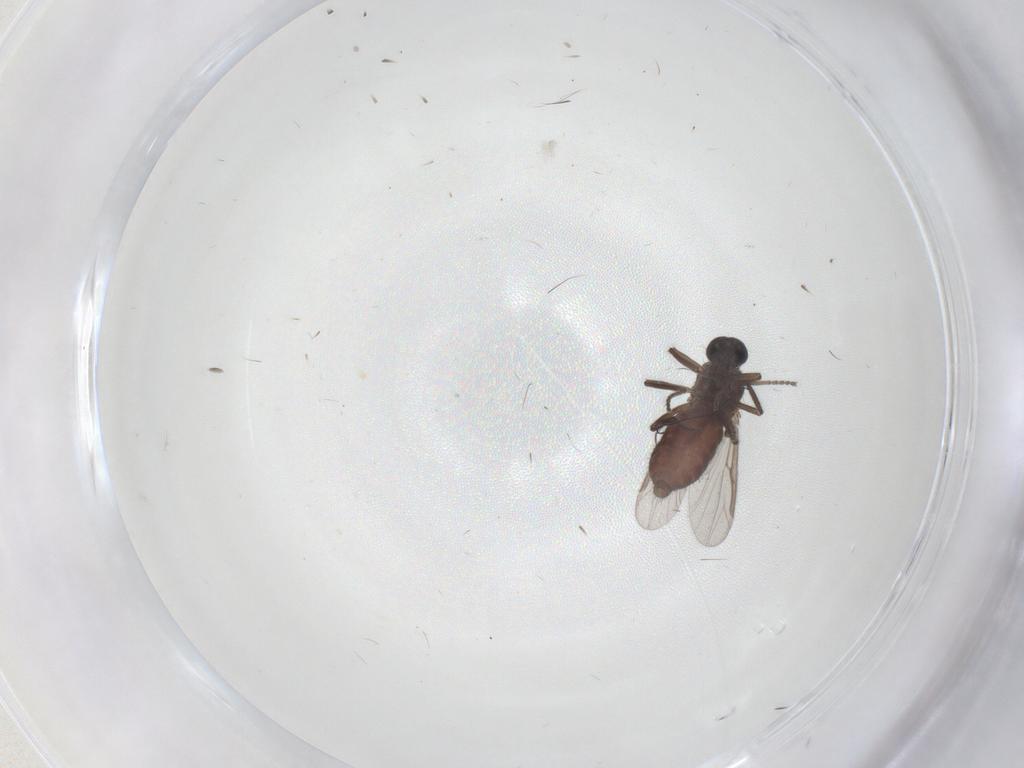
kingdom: Animalia
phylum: Arthropoda
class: Insecta
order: Diptera
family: Ceratopogonidae
